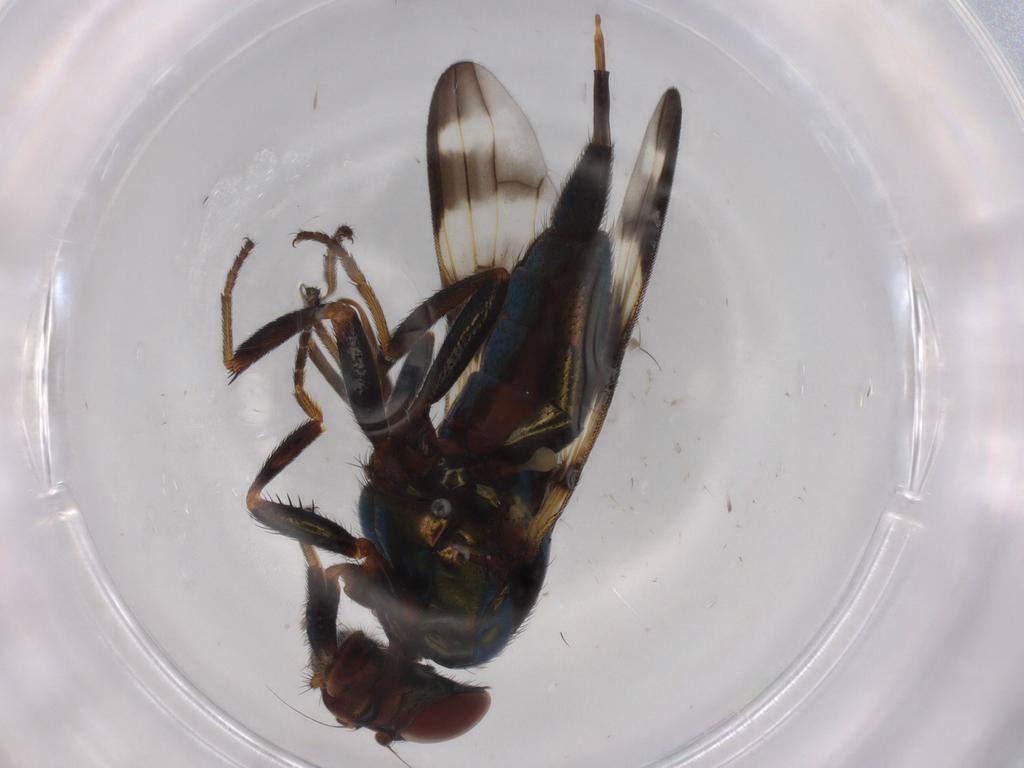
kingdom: Animalia
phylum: Arthropoda
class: Insecta
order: Diptera
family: Ulidiidae
